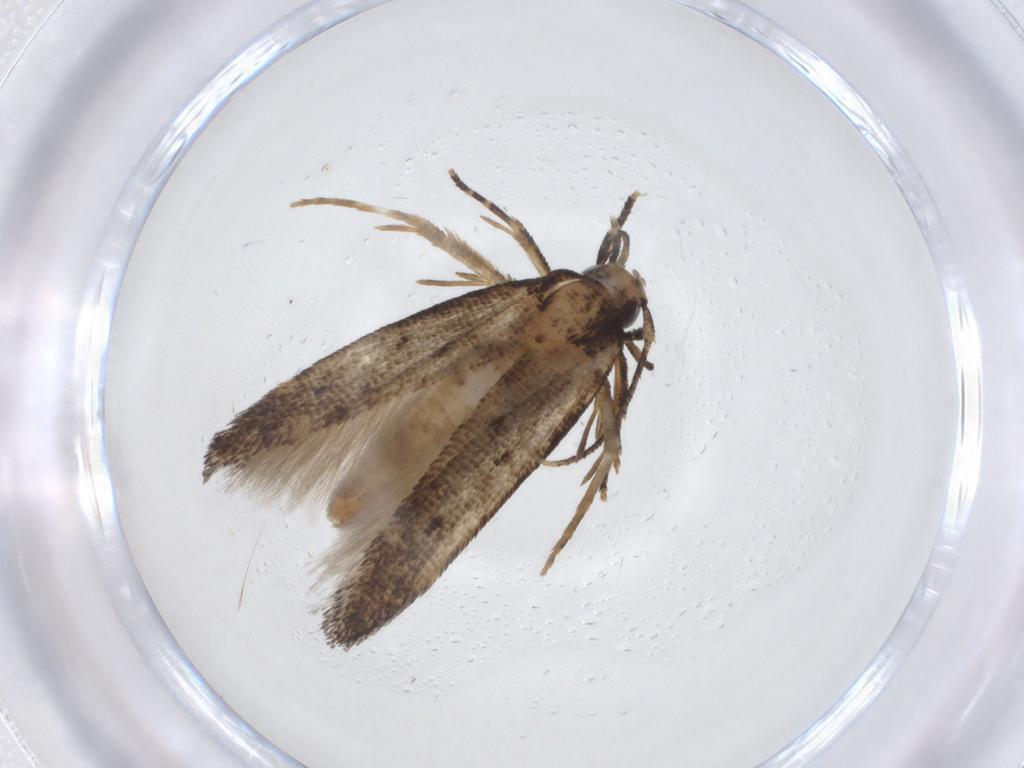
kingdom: Animalia
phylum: Arthropoda
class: Insecta
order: Lepidoptera
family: Gelechiidae
